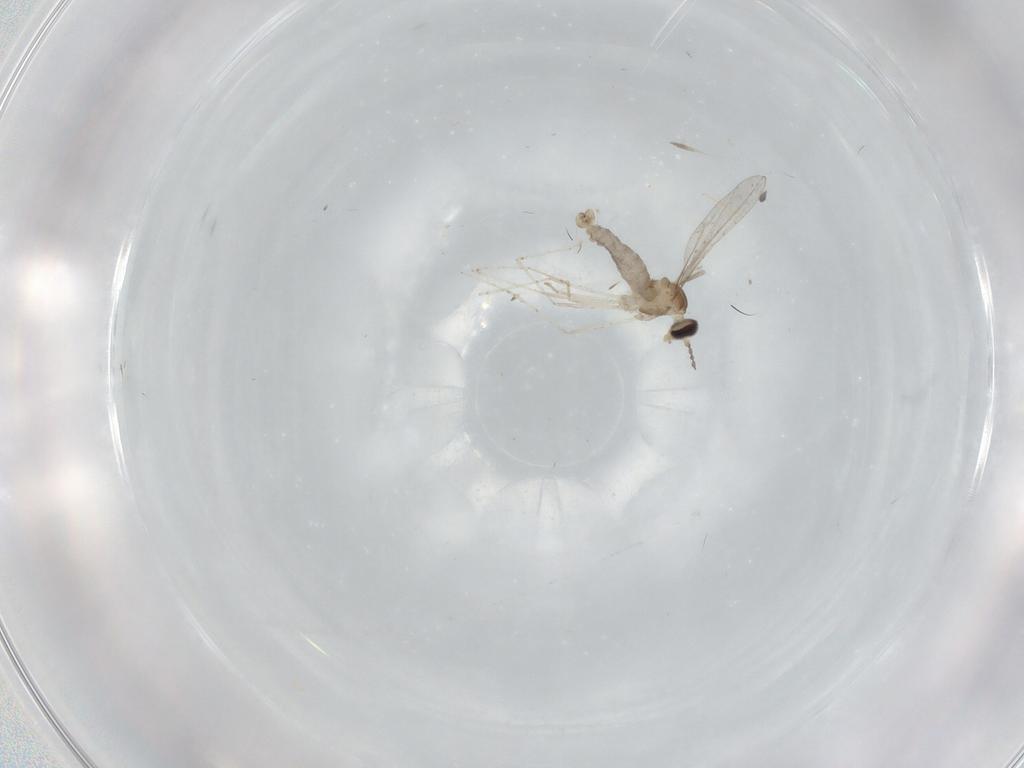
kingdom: Animalia
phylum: Arthropoda
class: Insecta
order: Diptera
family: Cecidomyiidae
